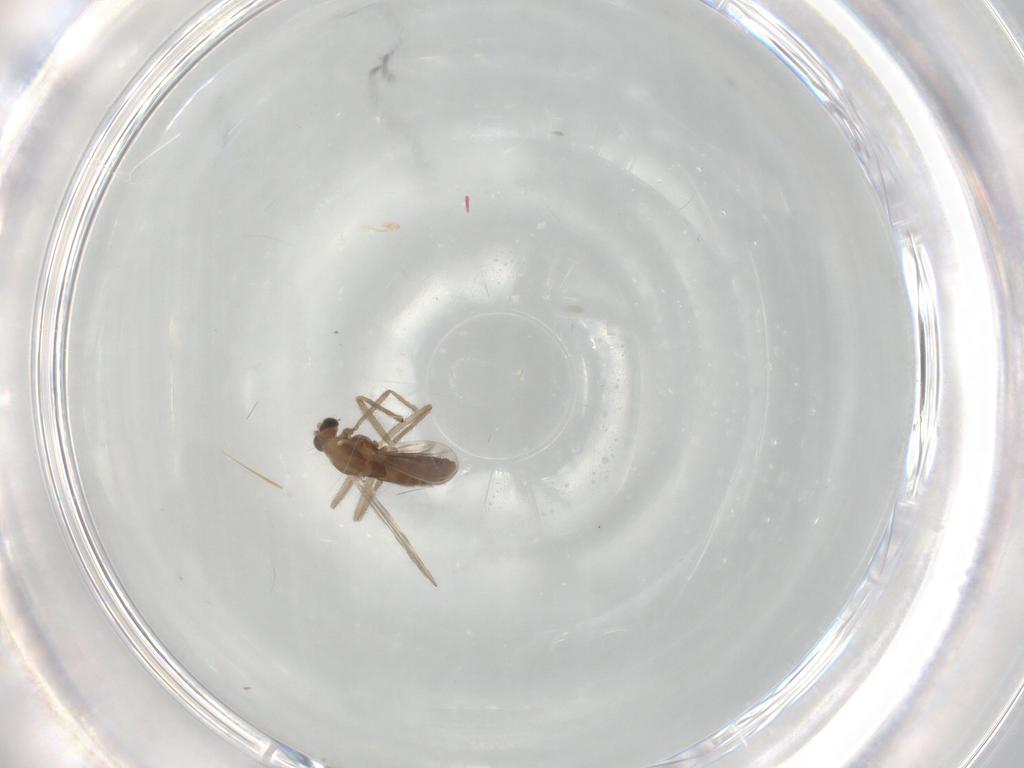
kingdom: Animalia
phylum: Arthropoda
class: Insecta
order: Diptera
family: Chironomidae
